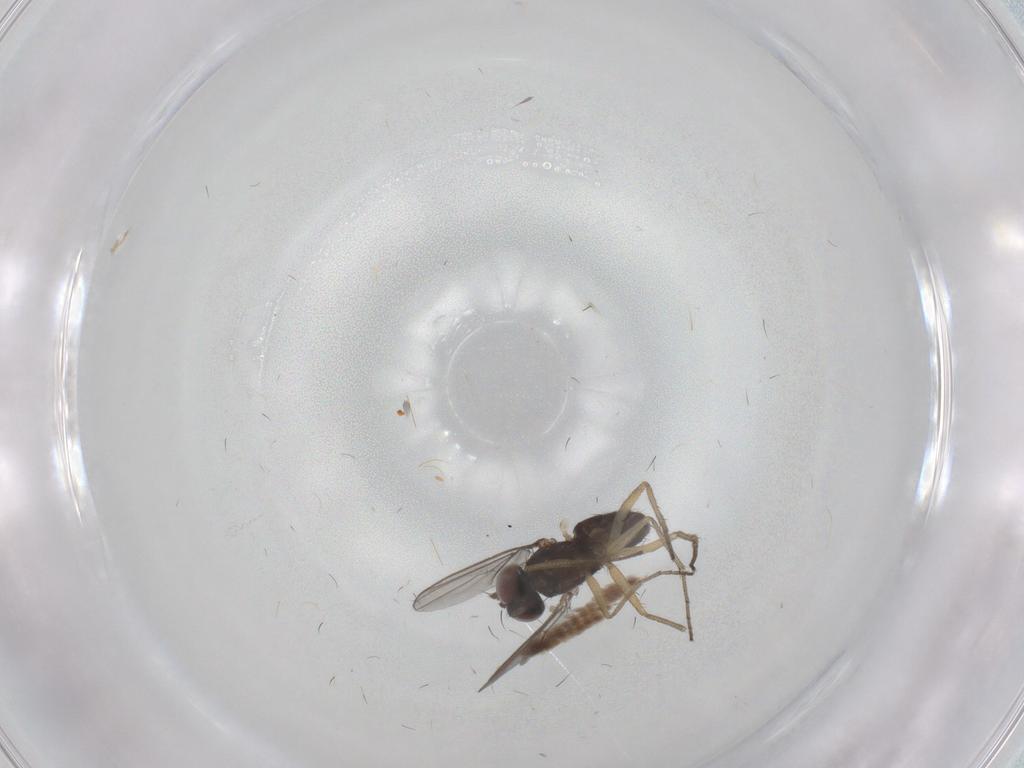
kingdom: Animalia
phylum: Arthropoda
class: Insecta
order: Diptera
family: Dolichopodidae
